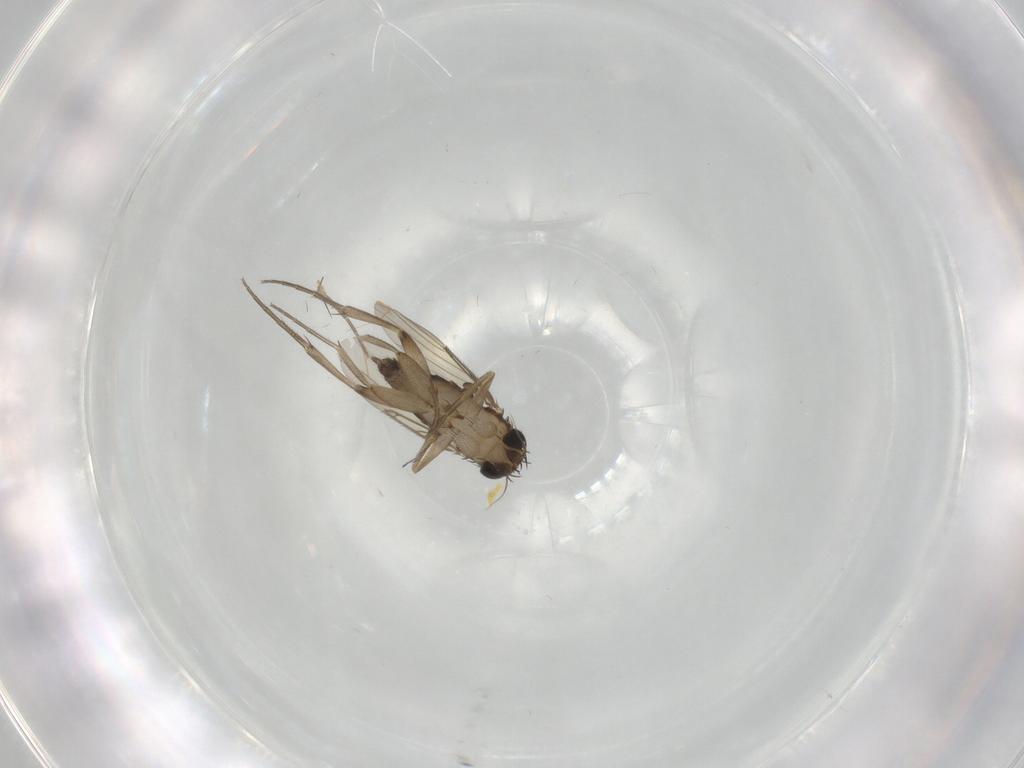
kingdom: Animalia
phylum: Arthropoda
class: Insecta
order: Diptera
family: Phoridae
